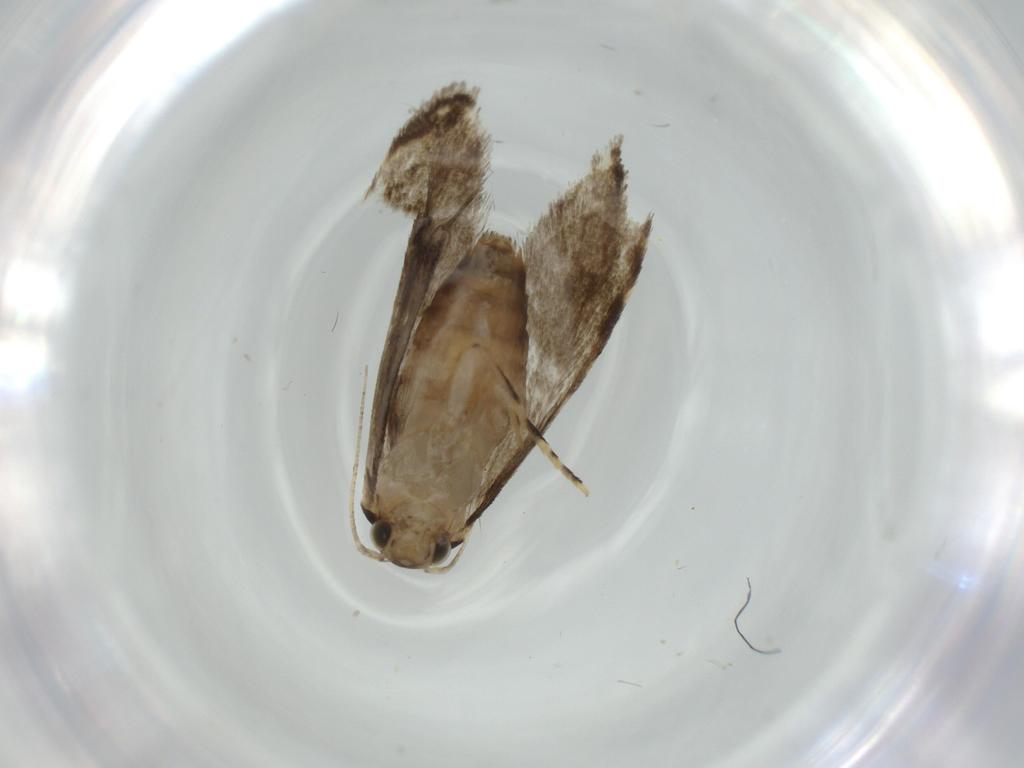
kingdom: Animalia
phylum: Arthropoda
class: Insecta
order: Lepidoptera
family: Tineidae
